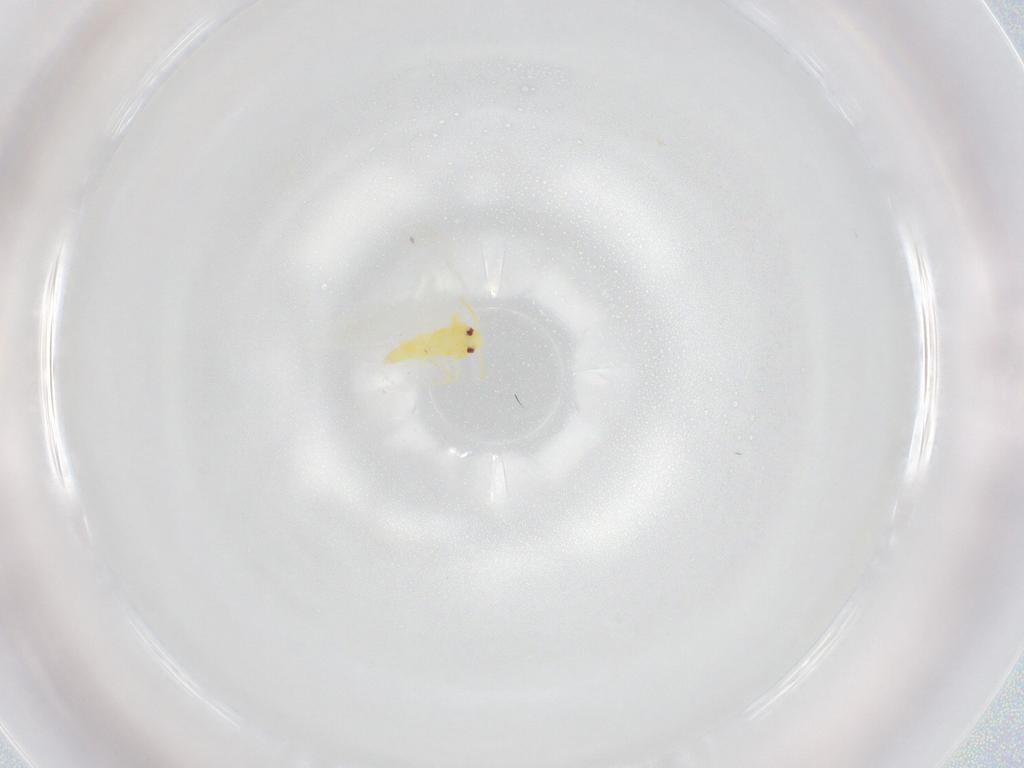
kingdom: Animalia
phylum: Arthropoda
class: Insecta
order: Hemiptera
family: Aleyrodidae
